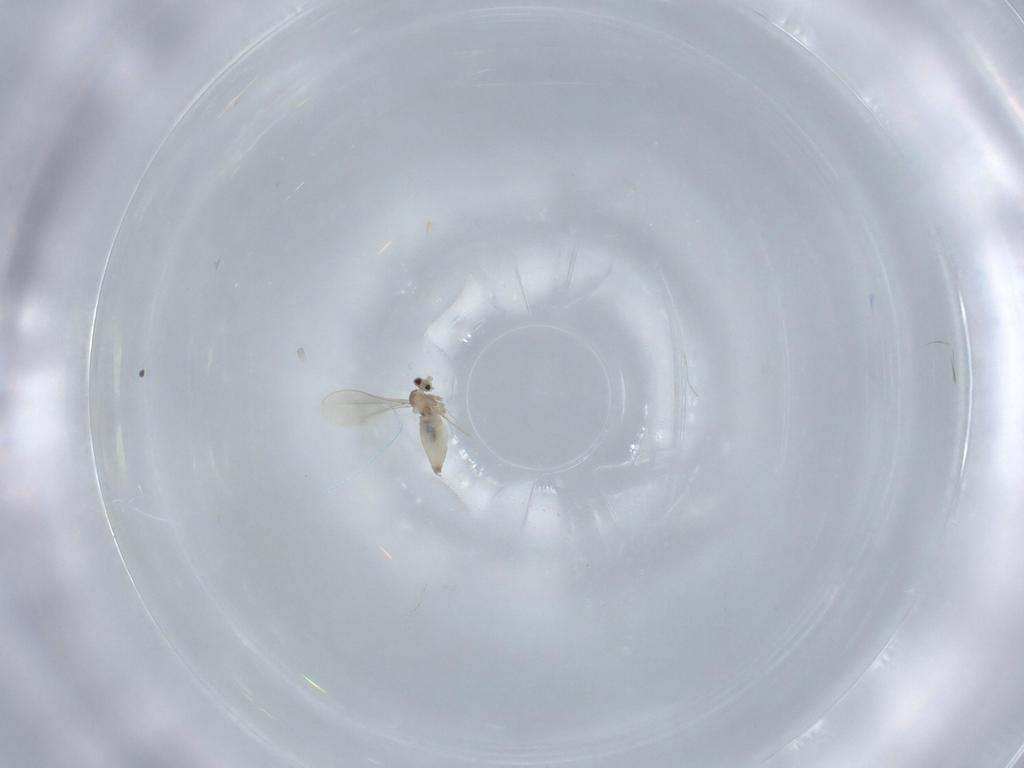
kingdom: Animalia
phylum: Arthropoda
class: Insecta
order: Diptera
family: Cecidomyiidae
